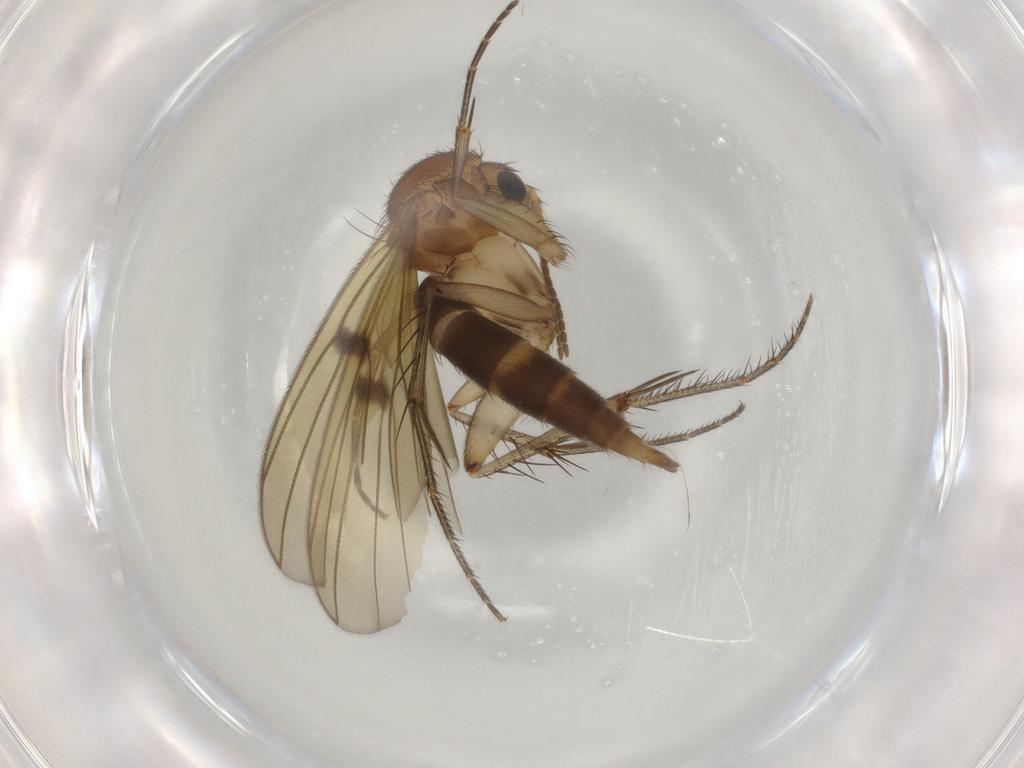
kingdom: Animalia
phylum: Arthropoda
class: Insecta
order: Diptera
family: Mycetophilidae
